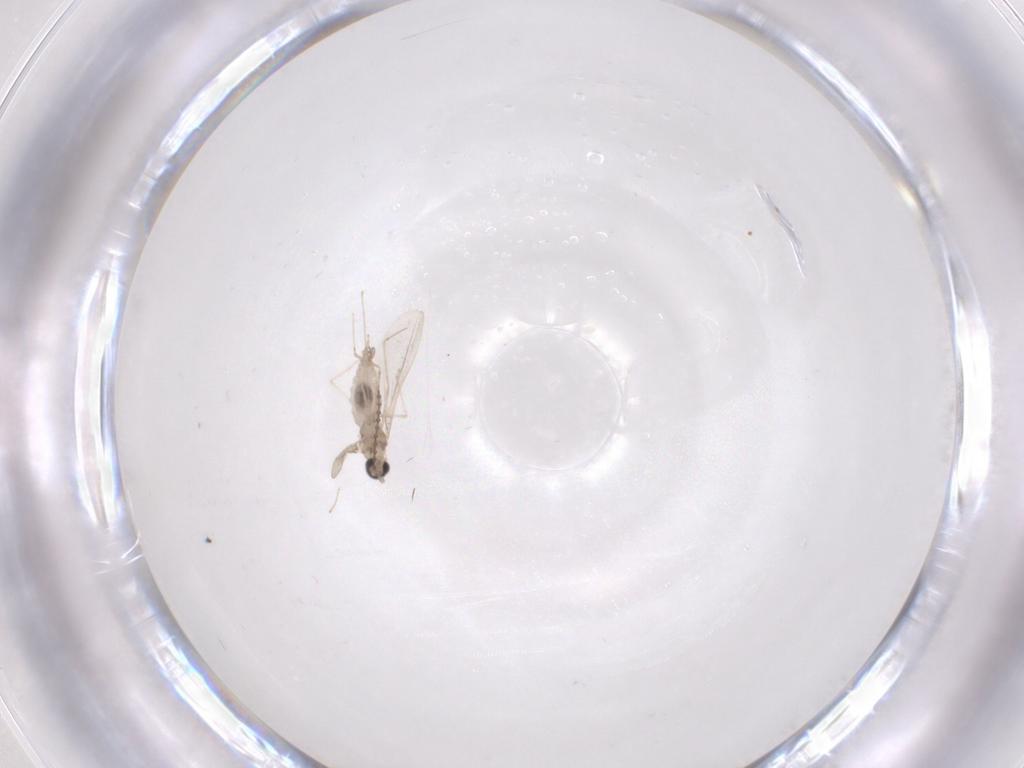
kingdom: Animalia
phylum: Arthropoda
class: Insecta
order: Diptera
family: Cecidomyiidae
